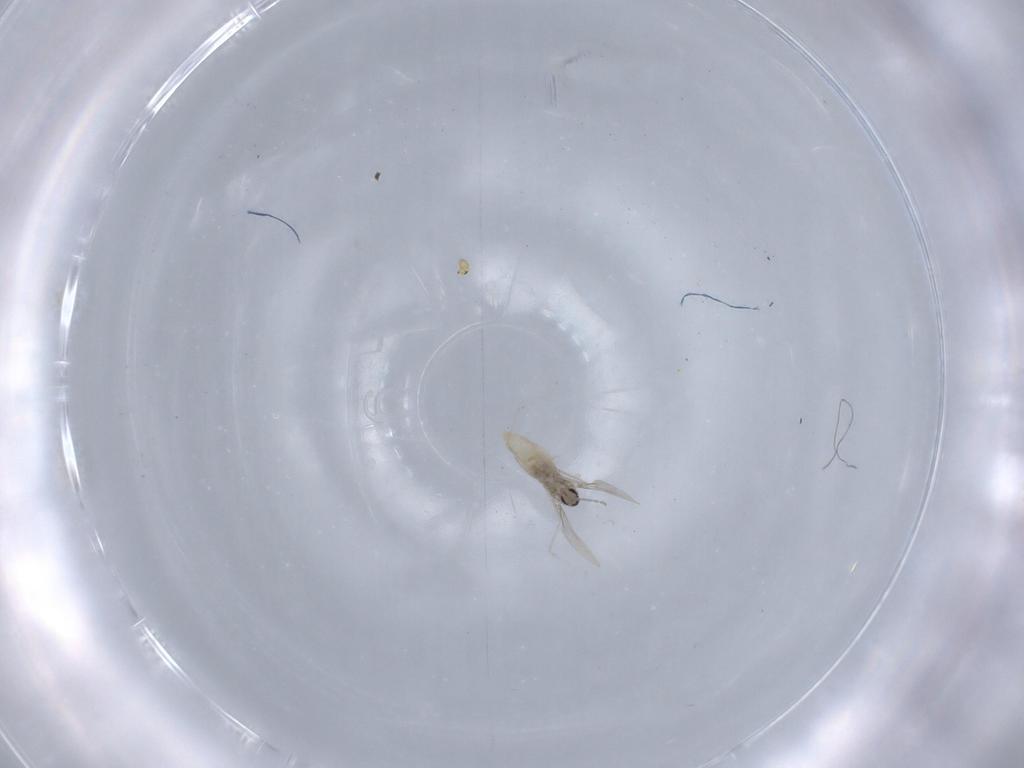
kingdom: Animalia
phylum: Arthropoda
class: Insecta
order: Diptera
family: Cecidomyiidae
